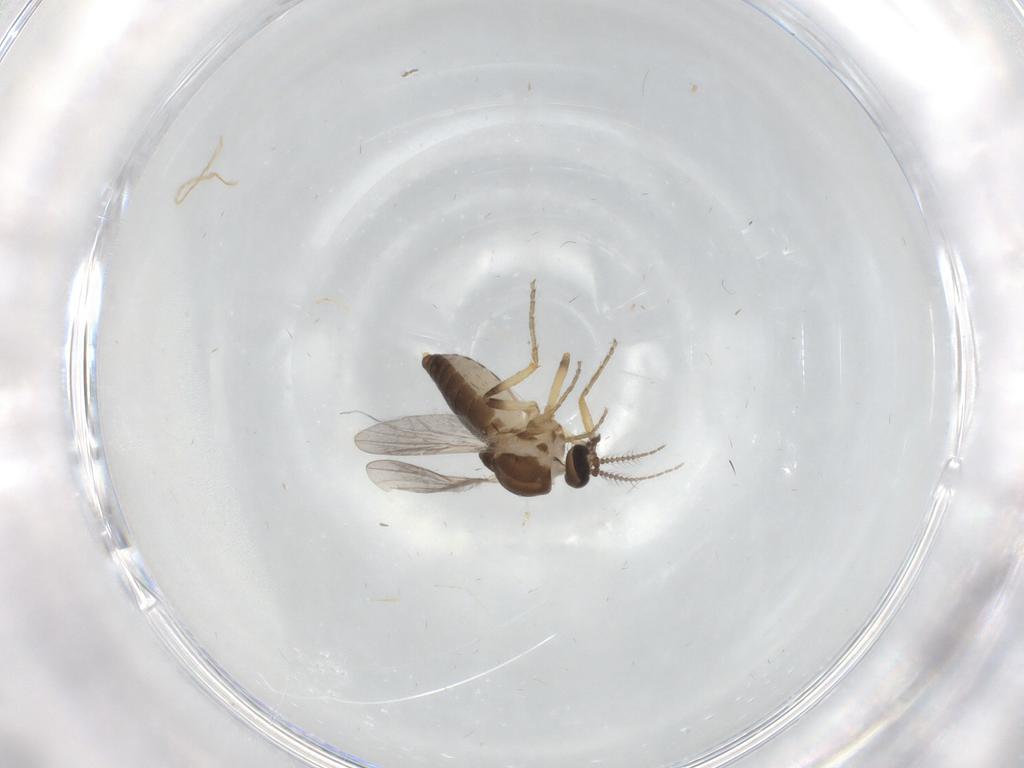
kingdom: Animalia
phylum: Arthropoda
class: Insecta
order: Diptera
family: Ceratopogonidae
